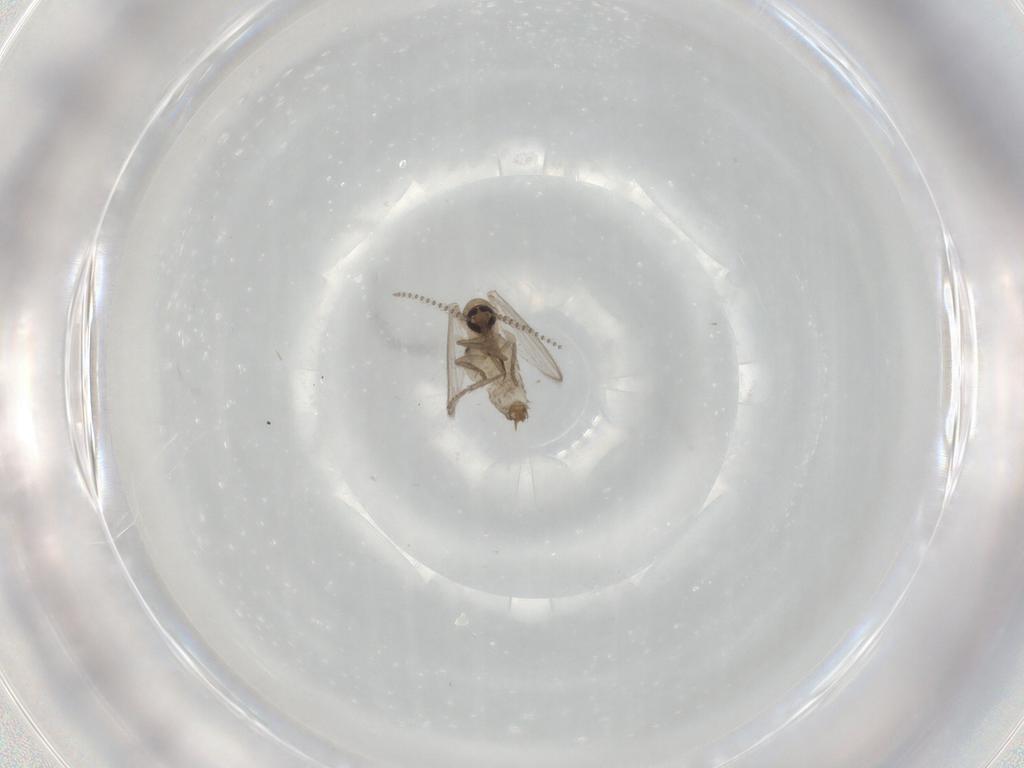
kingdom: Animalia
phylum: Arthropoda
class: Insecta
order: Diptera
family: Psychodidae
